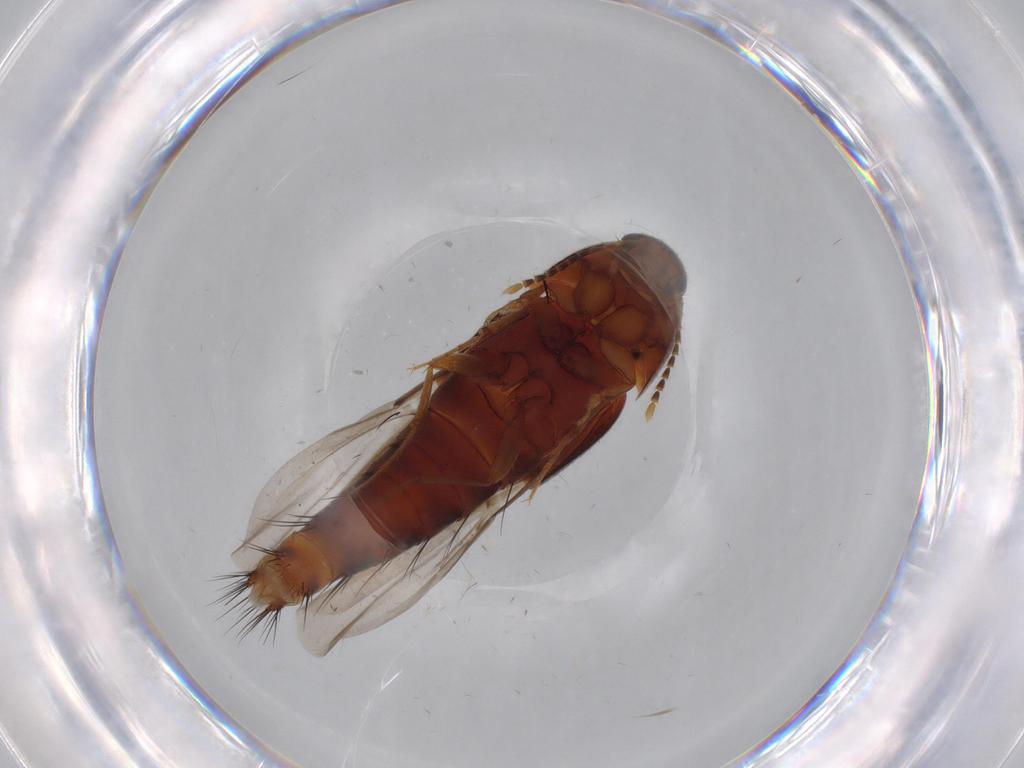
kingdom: Animalia
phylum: Arthropoda
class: Insecta
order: Coleoptera
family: Staphylinidae
